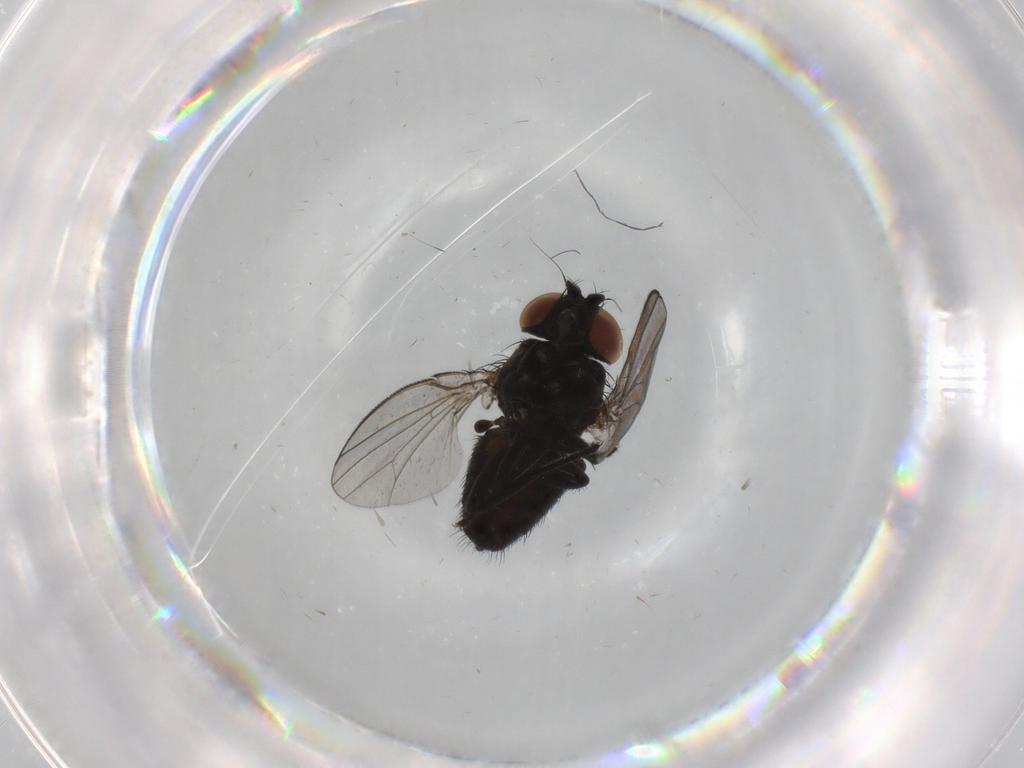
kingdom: Animalia
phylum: Arthropoda
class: Insecta
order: Diptera
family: Milichiidae
